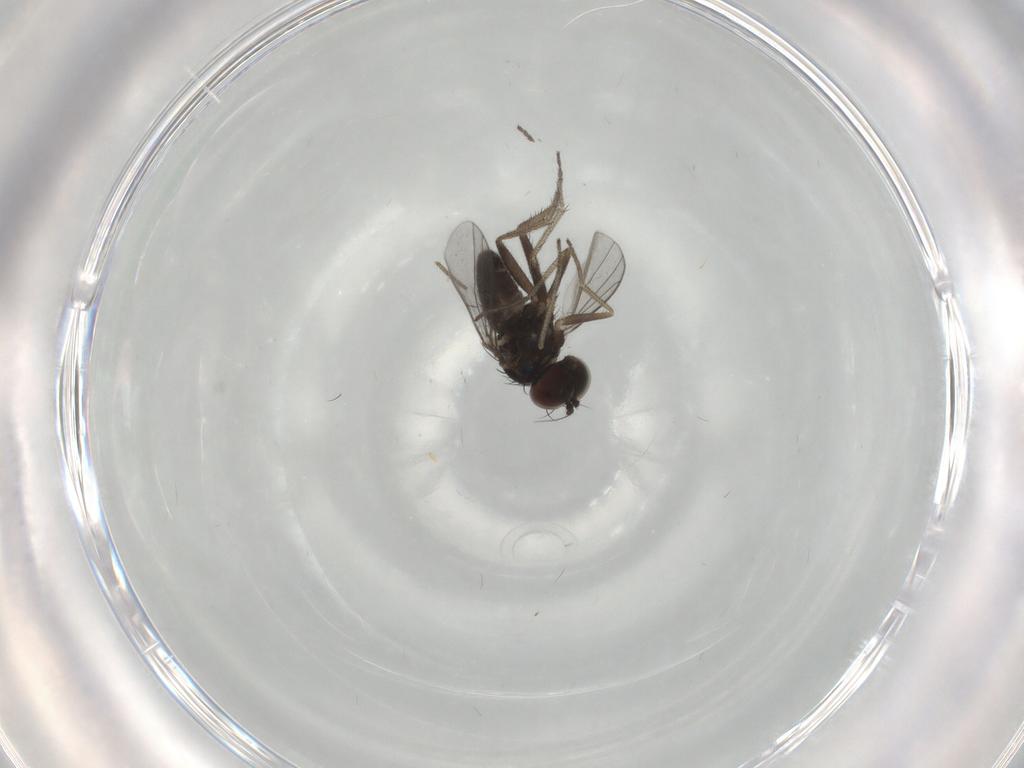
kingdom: Animalia
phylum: Arthropoda
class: Insecta
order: Diptera
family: Dolichopodidae
